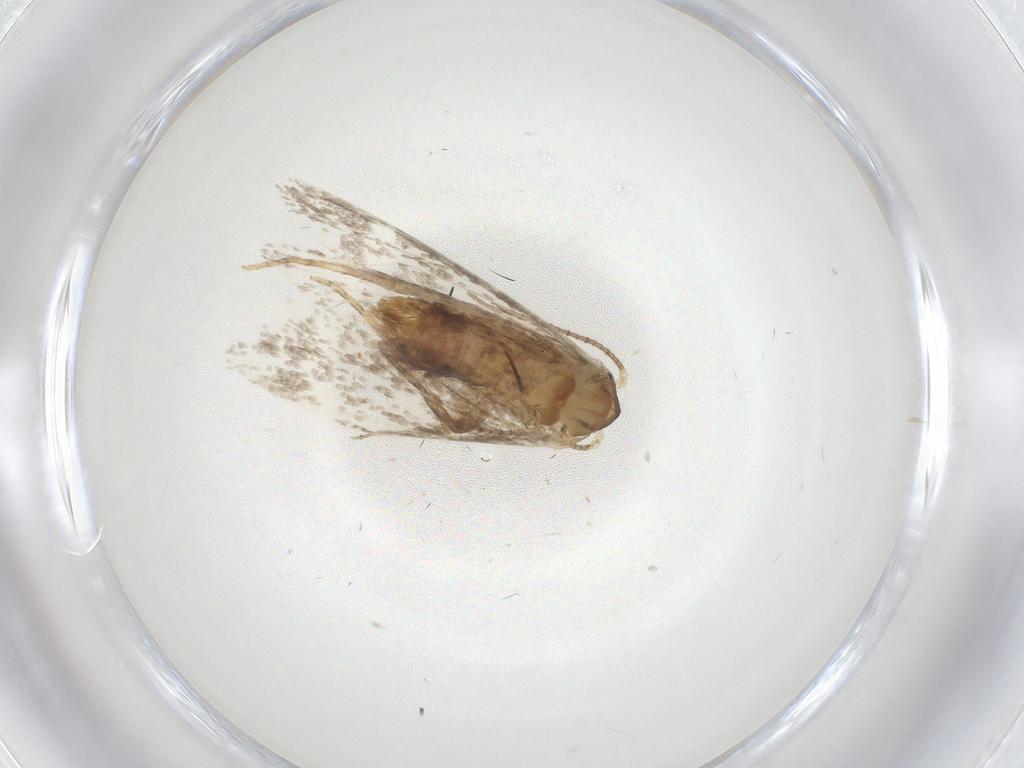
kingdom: Animalia
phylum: Arthropoda
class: Insecta
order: Lepidoptera
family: Dryadaulidae
